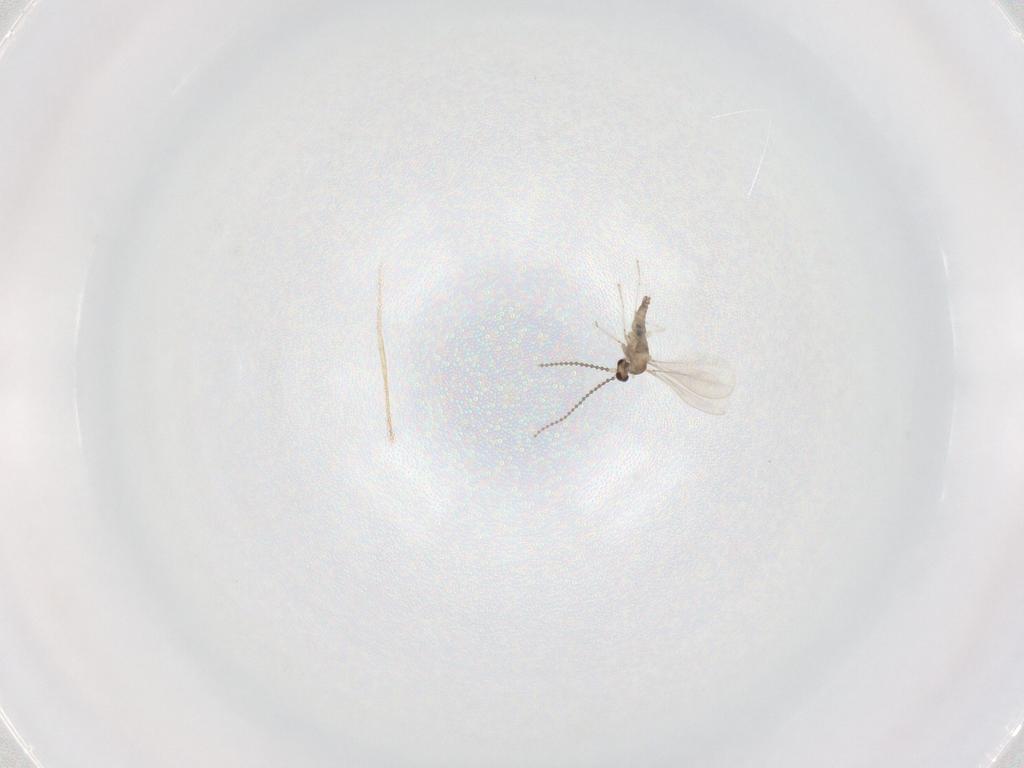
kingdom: Animalia
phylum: Arthropoda
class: Insecta
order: Diptera
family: Cecidomyiidae
